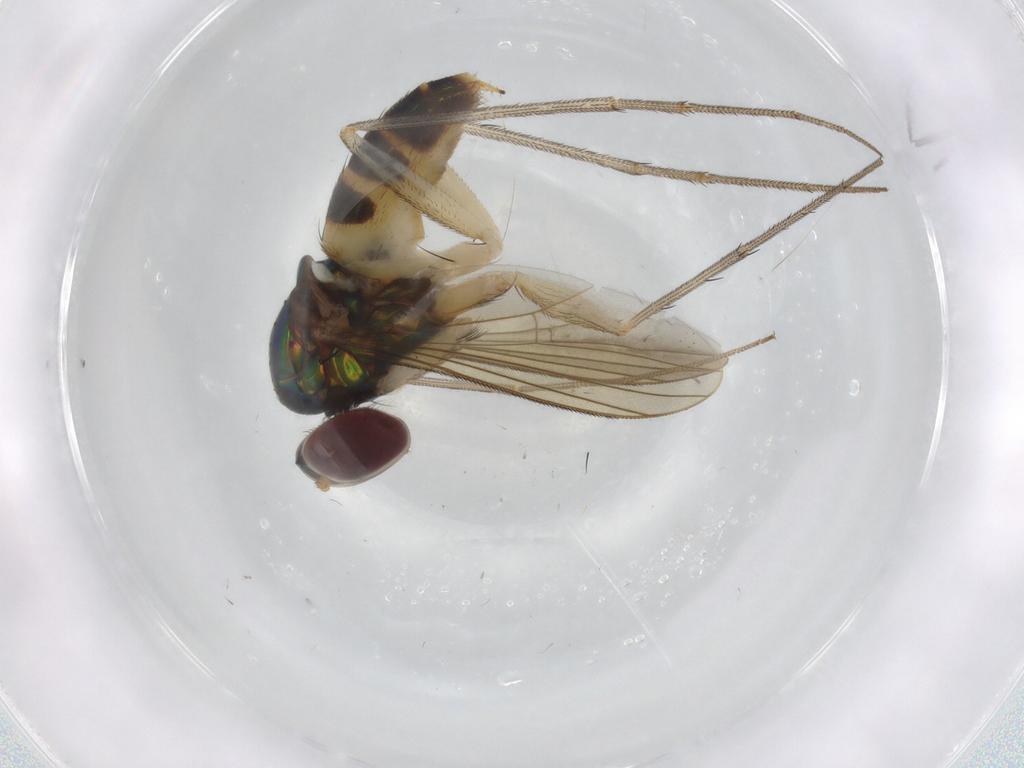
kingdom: Animalia
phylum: Arthropoda
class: Insecta
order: Diptera
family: Dolichopodidae
